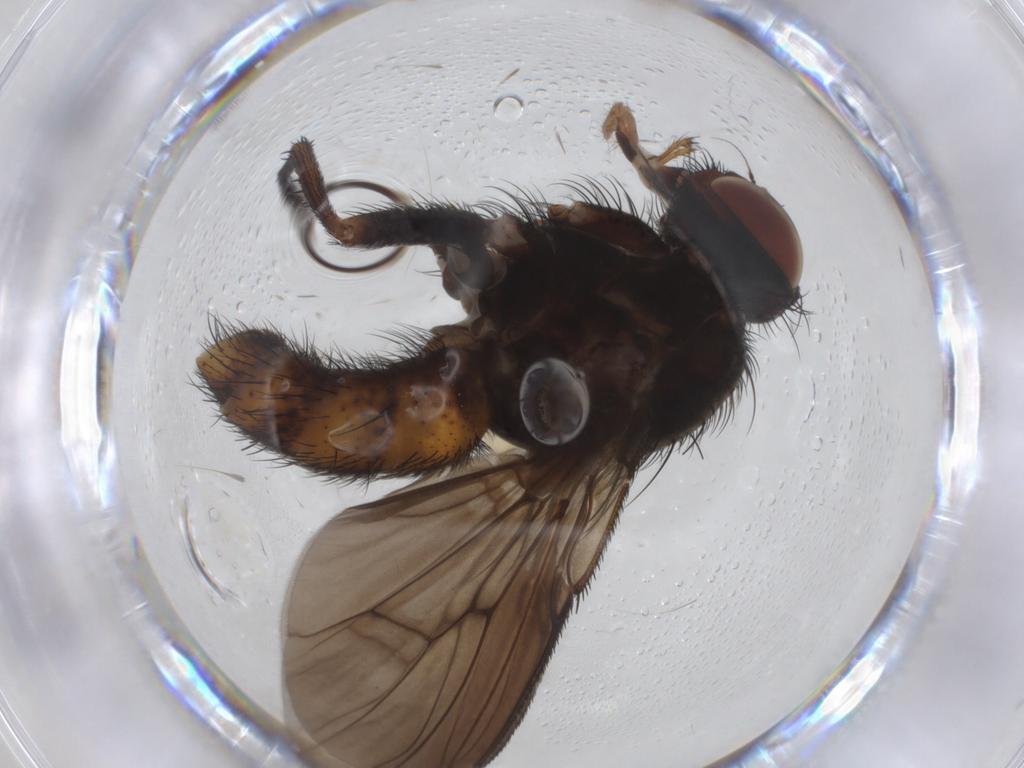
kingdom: Animalia
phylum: Arthropoda
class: Insecta
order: Diptera
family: Muscidae
